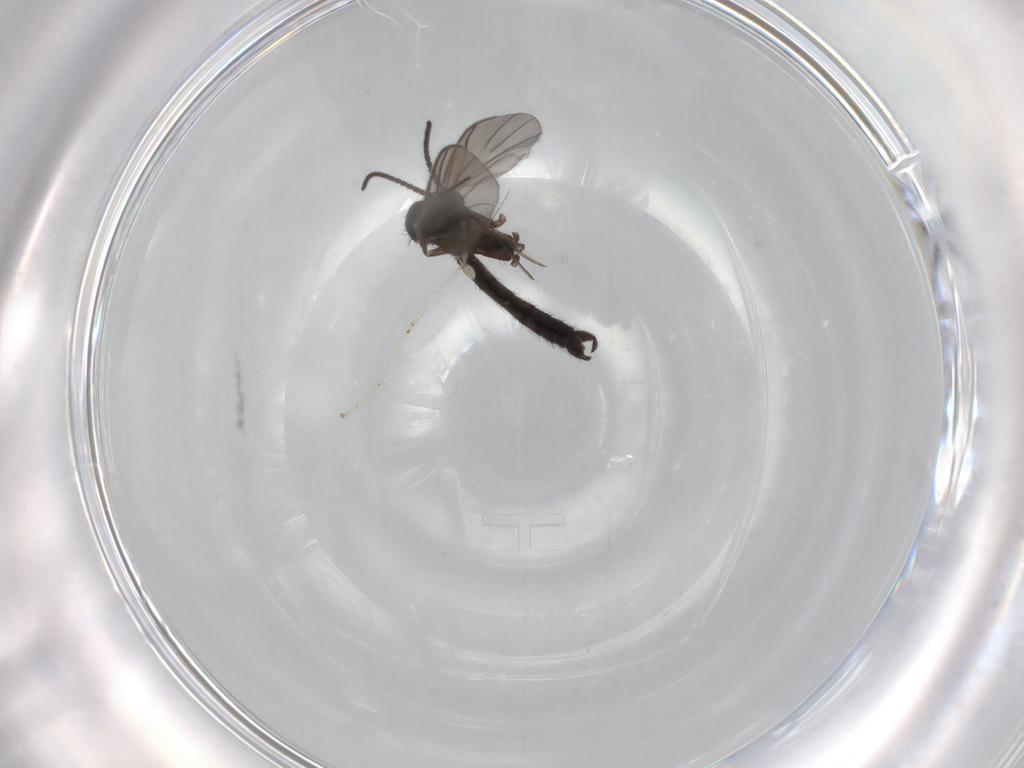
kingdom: Animalia
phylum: Arthropoda
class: Insecta
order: Diptera
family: Keroplatidae
